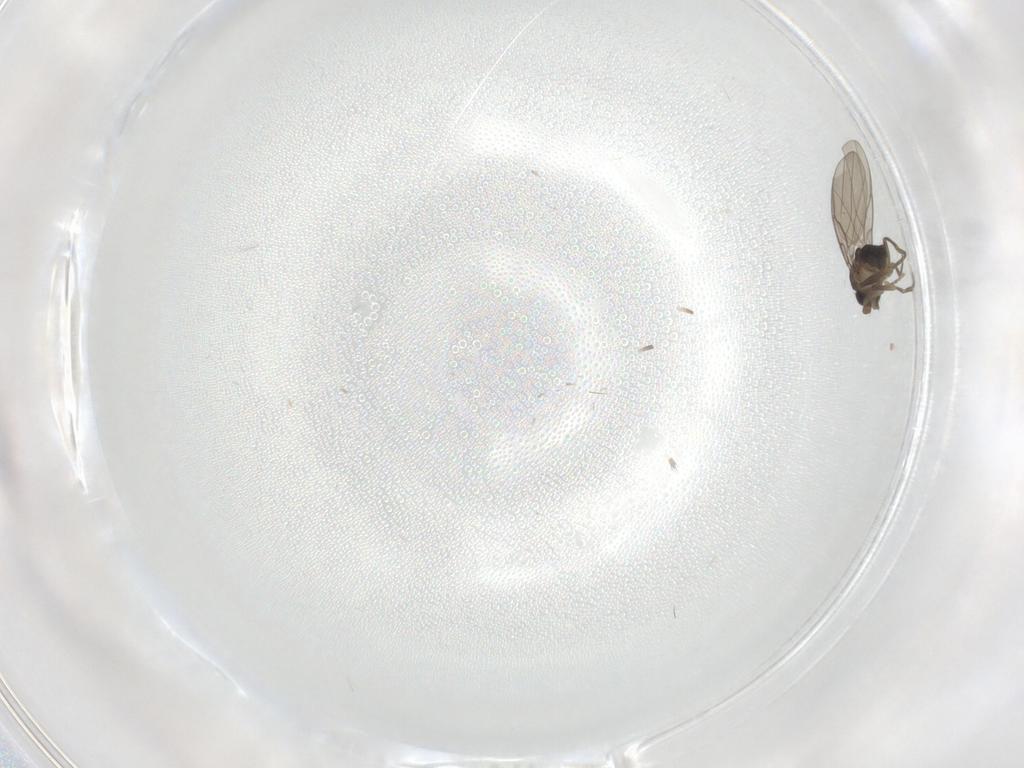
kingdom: Animalia
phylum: Arthropoda
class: Insecta
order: Diptera
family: Phoridae
